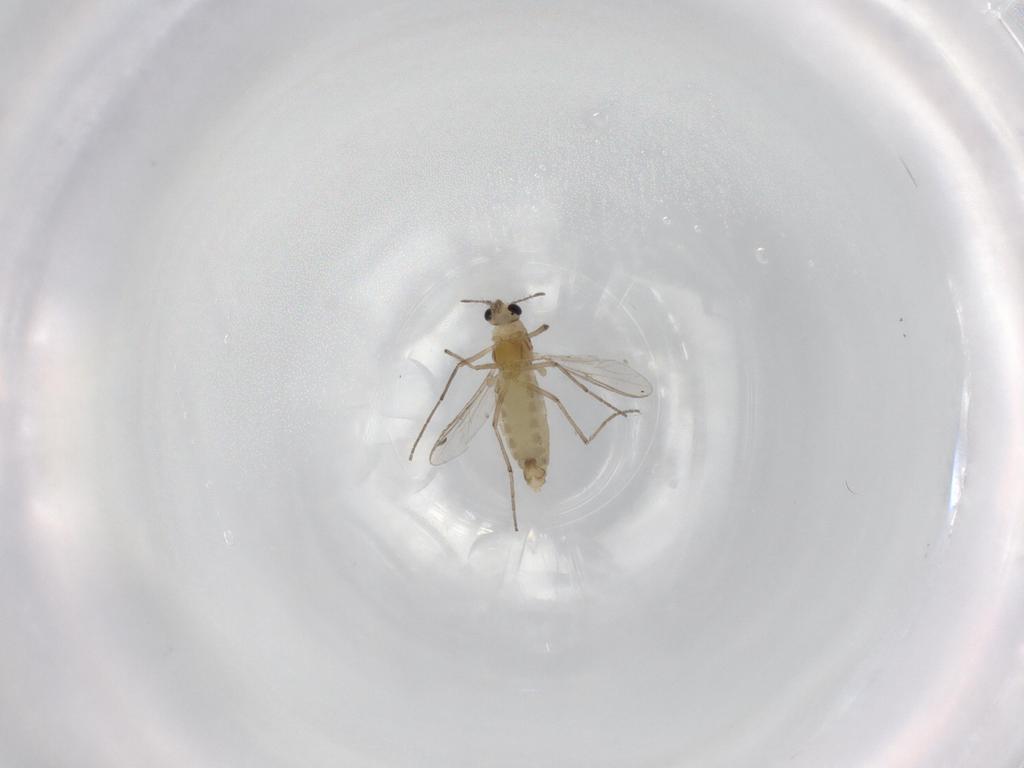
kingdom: Animalia
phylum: Arthropoda
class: Insecta
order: Diptera
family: Chironomidae
